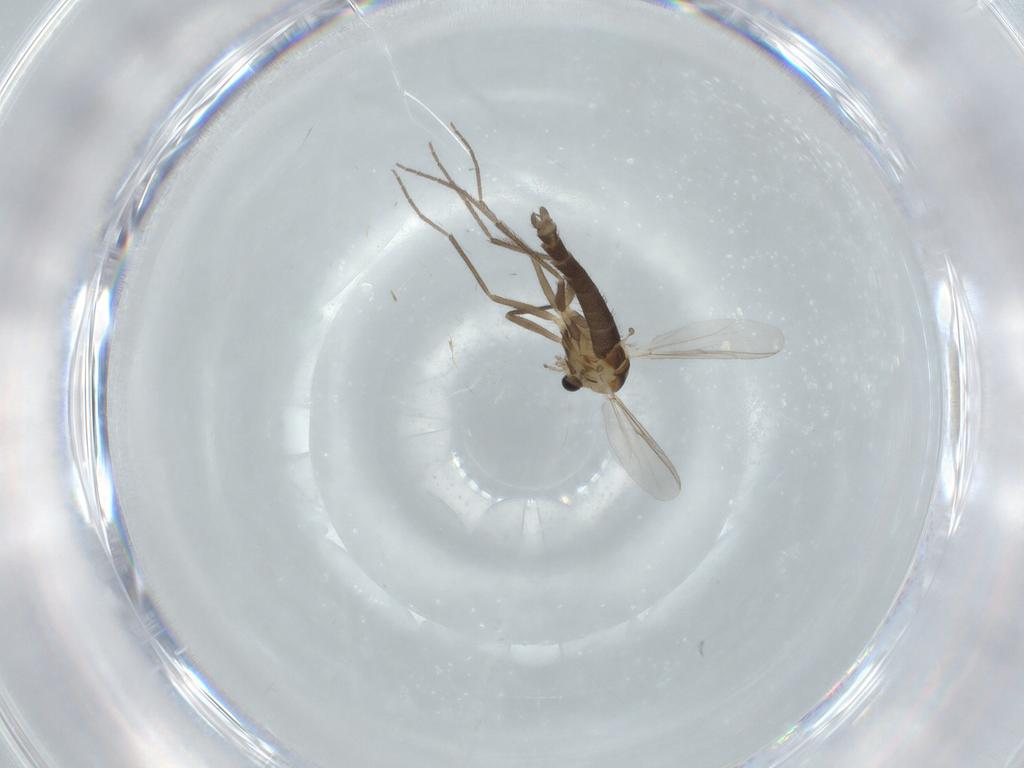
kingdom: Animalia
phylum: Arthropoda
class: Insecta
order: Diptera
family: Chironomidae
